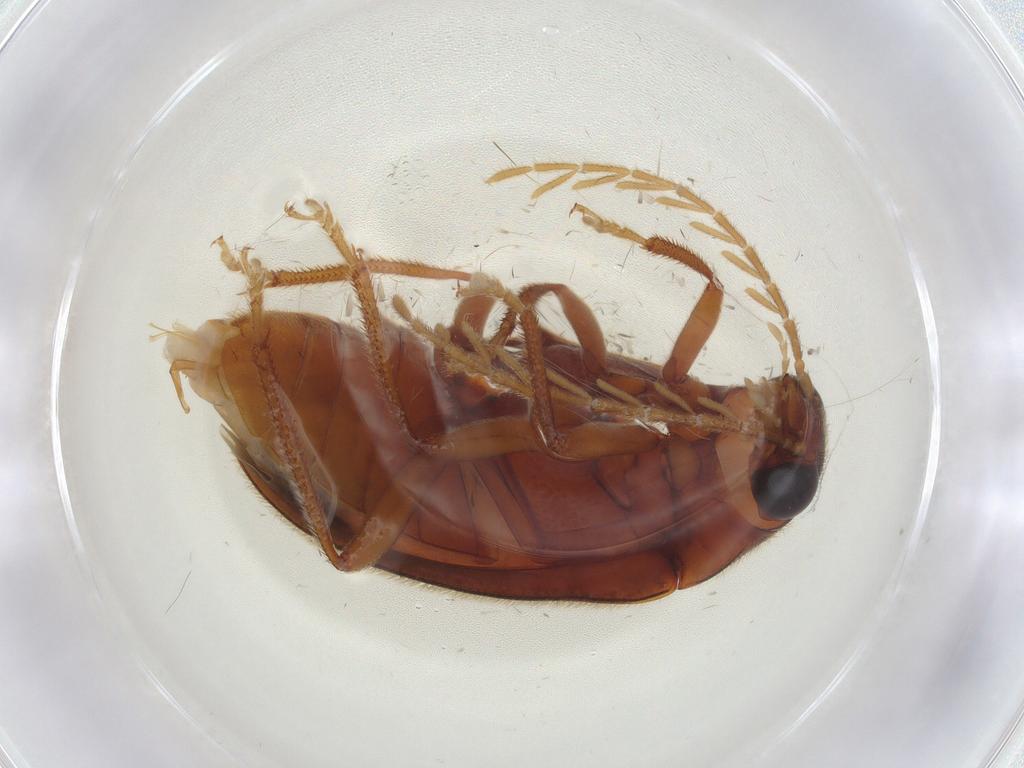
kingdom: Animalia
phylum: Arthropoda
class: Insecta
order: Coleoptera
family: Ptilodactylidae
